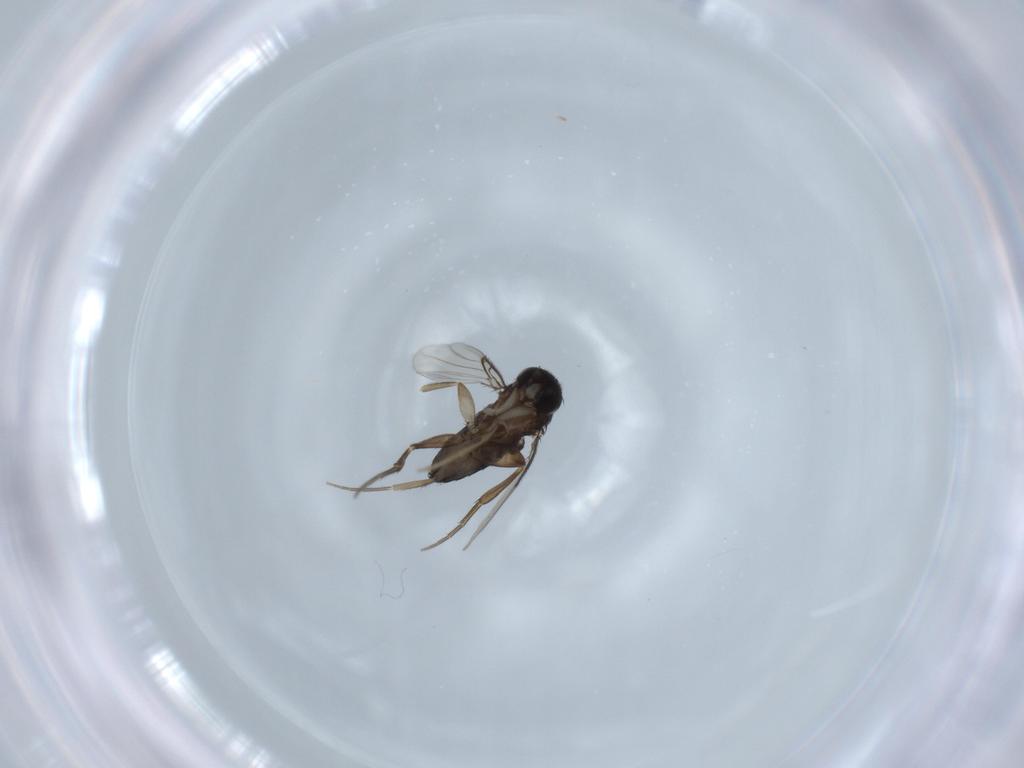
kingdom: Animalia
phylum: Arthropoda
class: Insecta
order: Diptera
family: Phoridae
